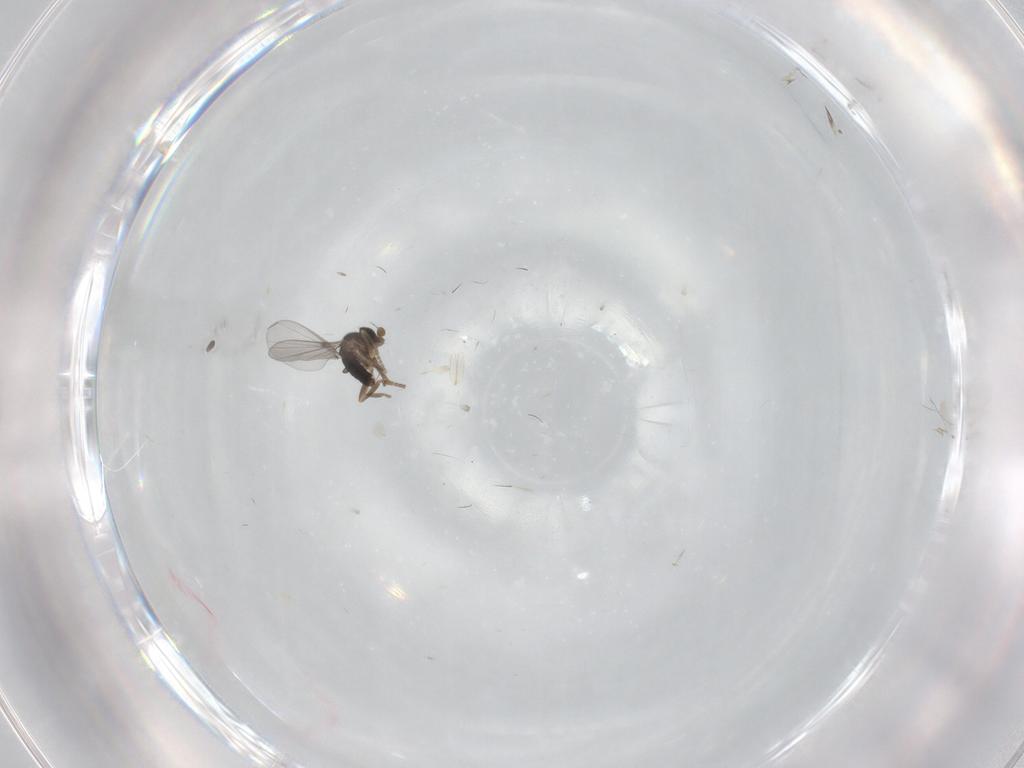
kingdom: Animalia
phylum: Arthropoda
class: Insecta
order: Diptera
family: Phoridae
